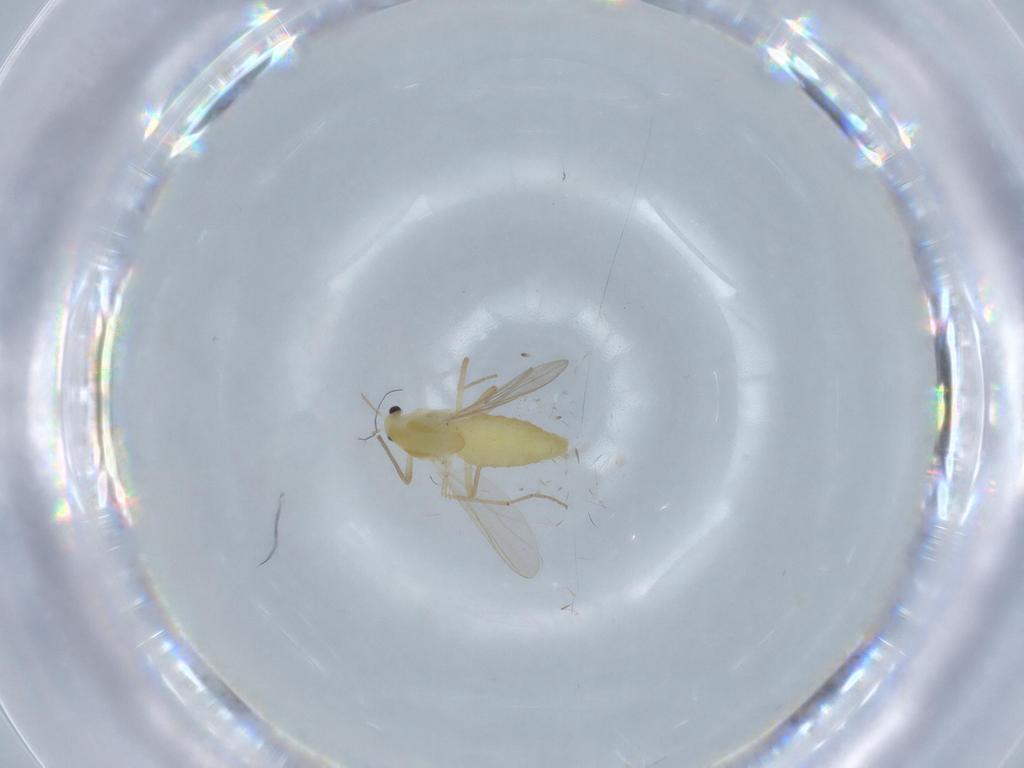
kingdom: Animalia
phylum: Arthropoda
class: Insecta
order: Diptera
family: Chironomidae
